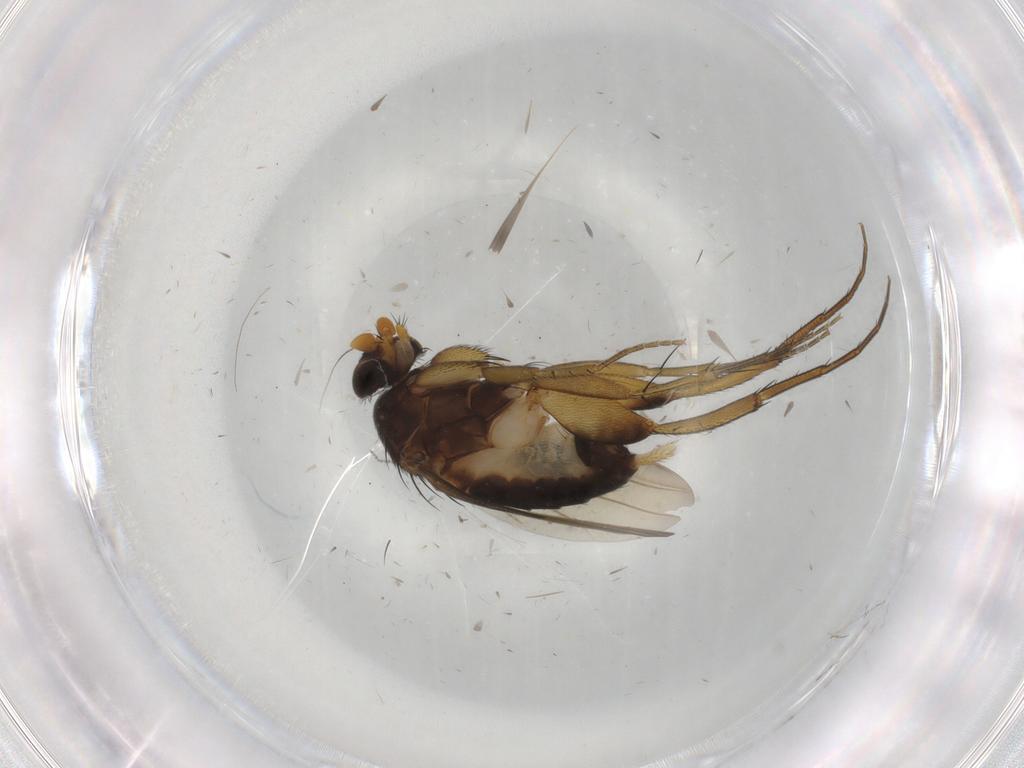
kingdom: Animalia
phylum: Arthropoda
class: Insecta
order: Diptera
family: Phoridae
